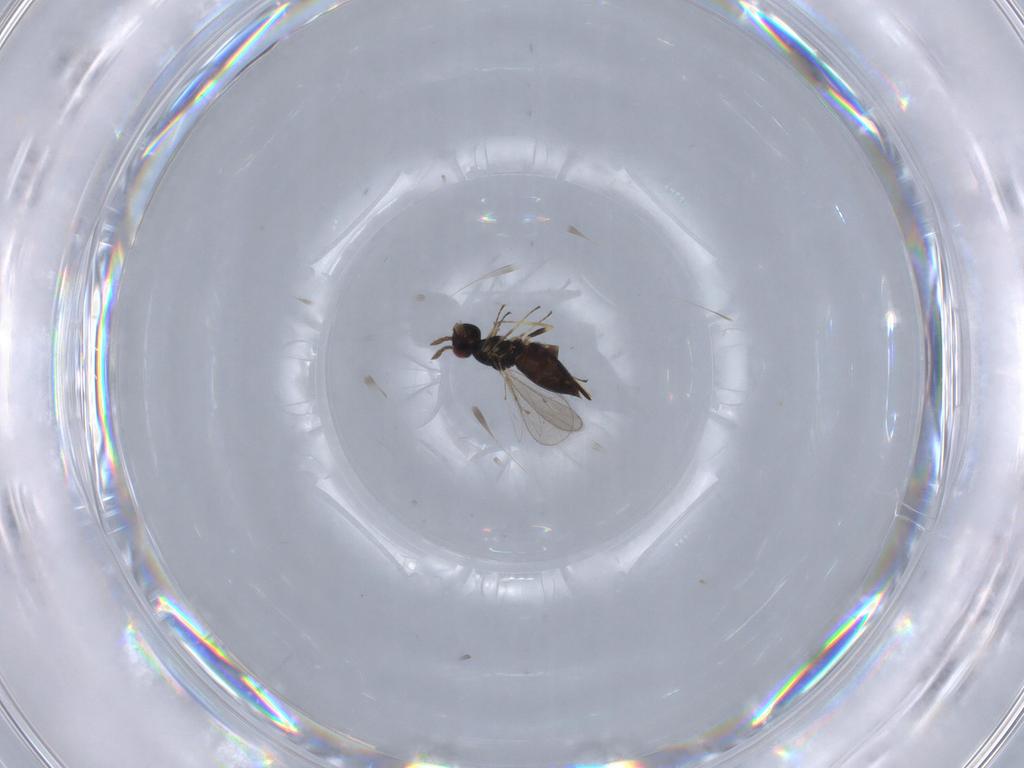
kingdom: Animalia
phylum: Arthropoda
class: Insecta
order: Hymenoptera
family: Eulophidae
